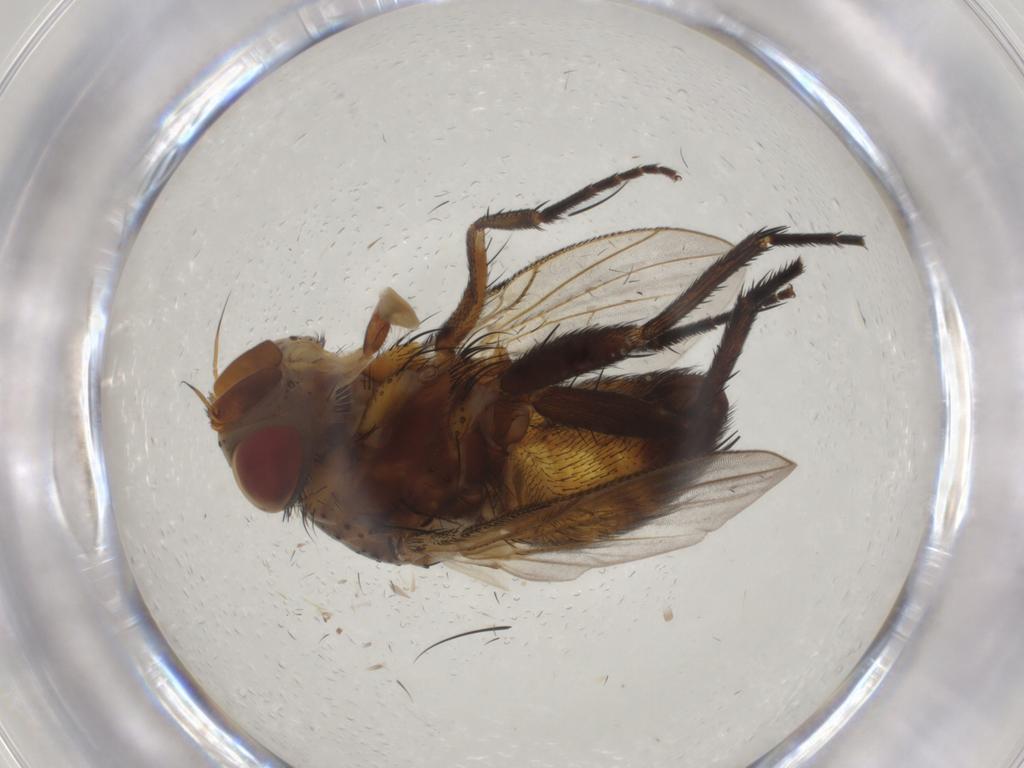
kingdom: Animalia
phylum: Arthropoda
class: Insecta
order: Diptera
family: Chloropidae
